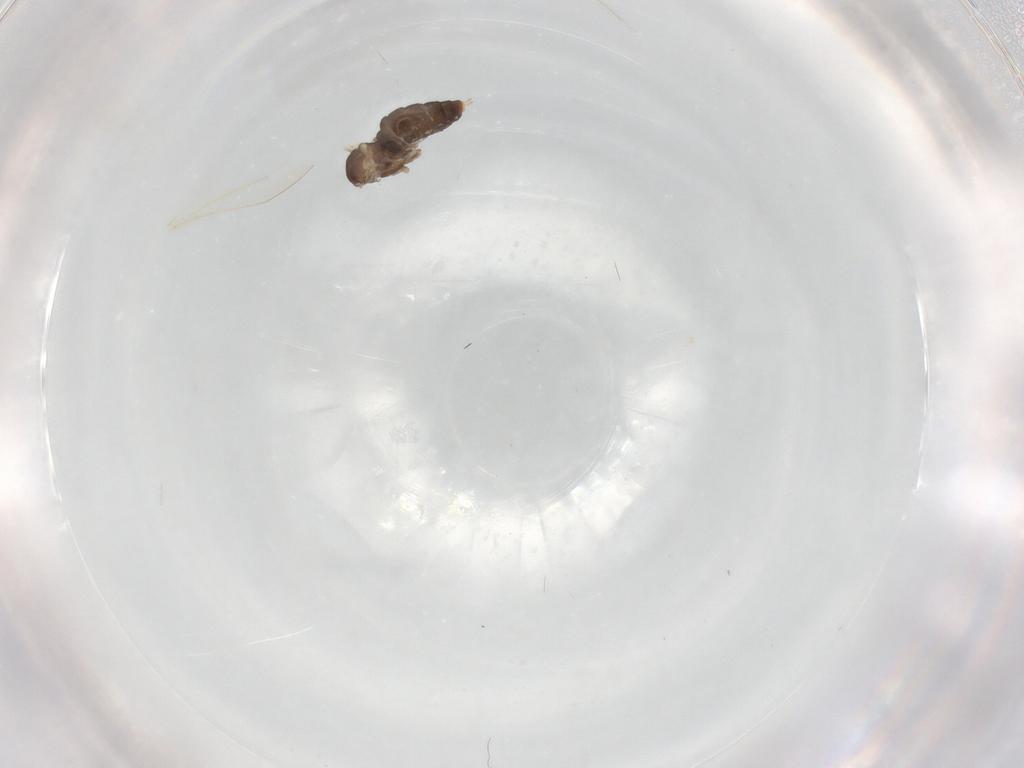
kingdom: Animalia
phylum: Arthropoda
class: Insecta
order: Diptera
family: Cecidomyiidae
